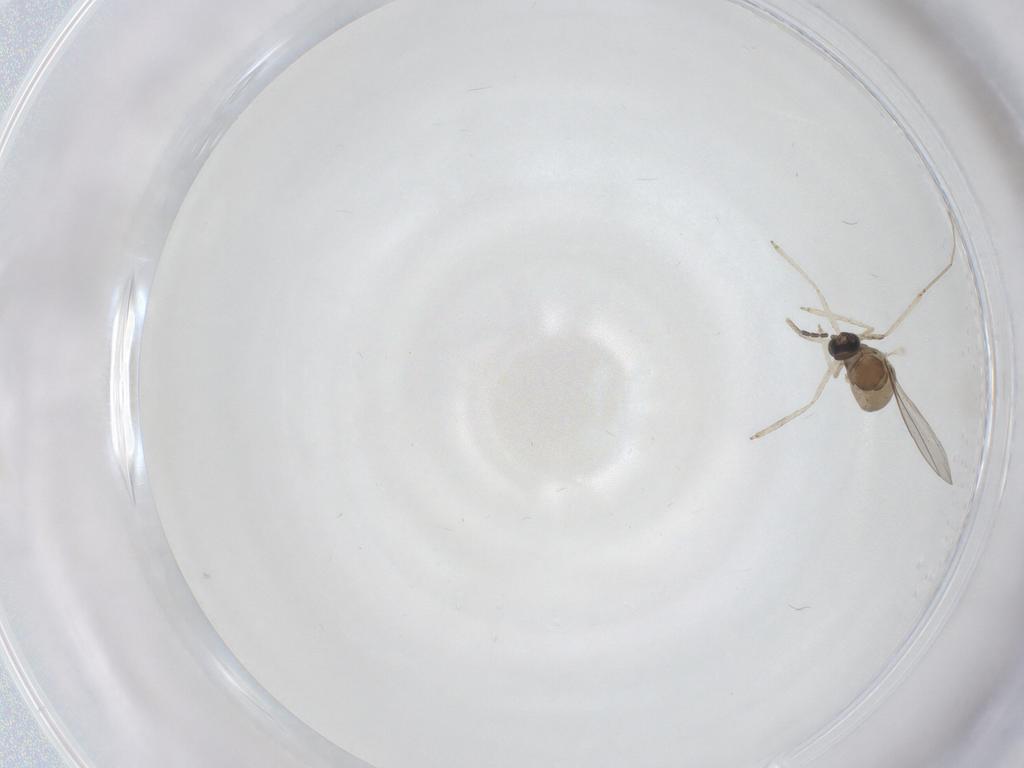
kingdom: Animalia
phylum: Arthropoda
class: Insecta
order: Diptera
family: Cecidomyiidae
